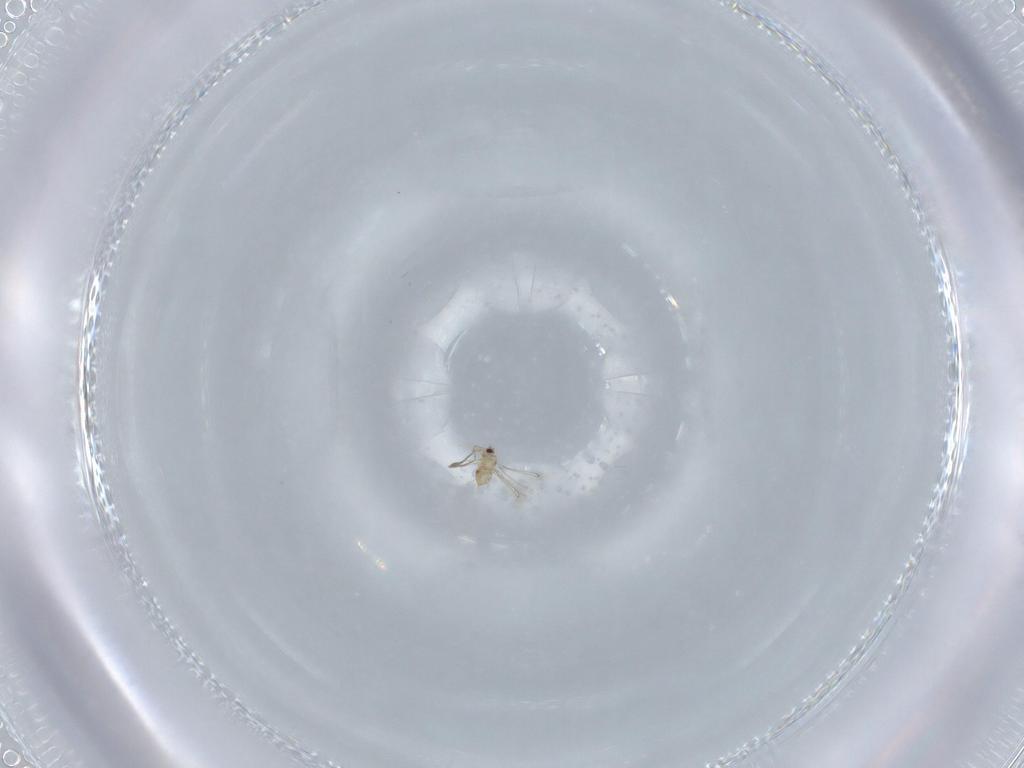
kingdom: Animalia
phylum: Arthropoda
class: Insecta
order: Hymenoptera
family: Mymaridae
